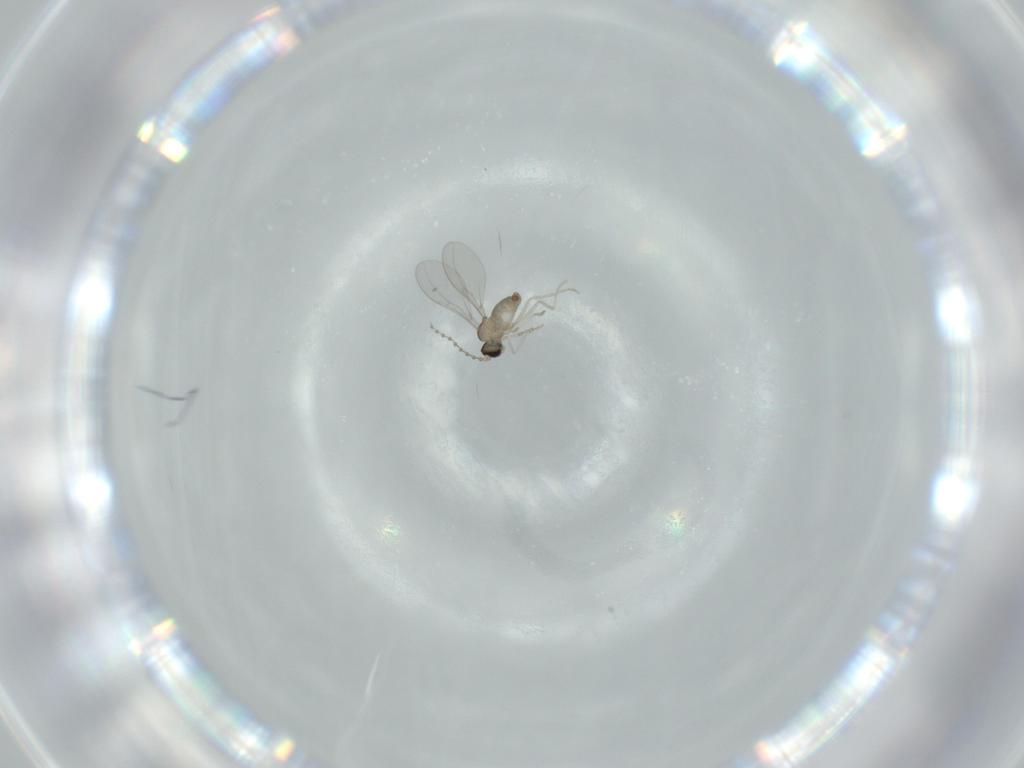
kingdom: Animalia
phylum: Arthropoda
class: Insecta
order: Diptera
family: Cecidomyiidae
